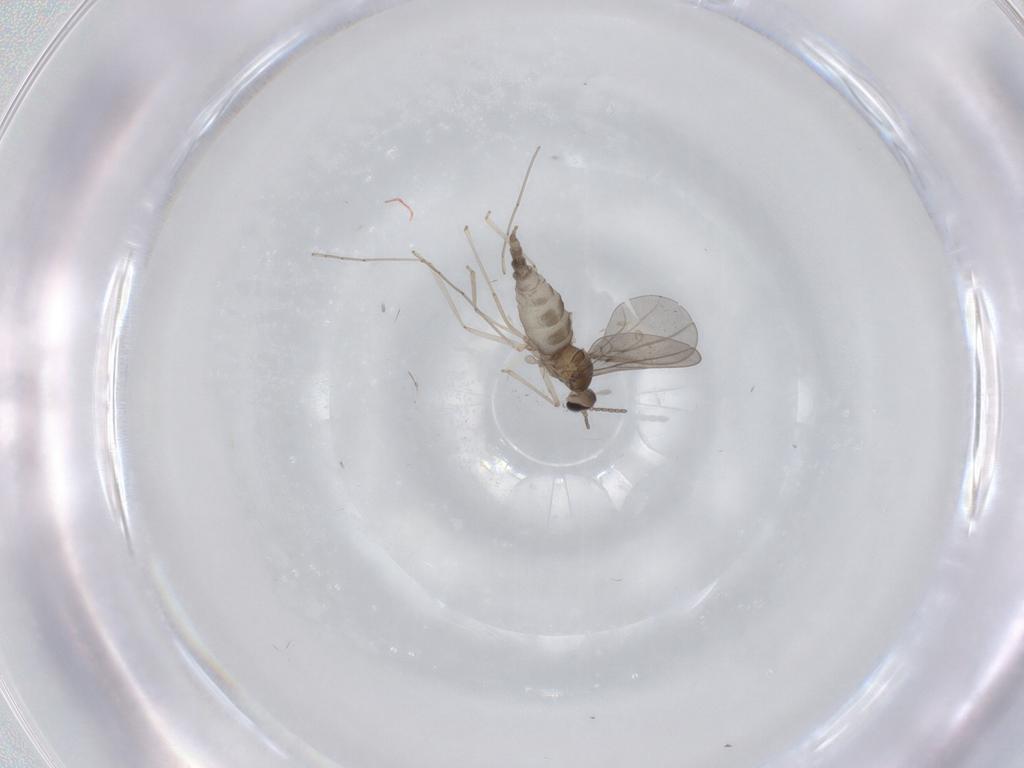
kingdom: Animalia
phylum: Arthropoda
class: Insecta
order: Diptera
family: Cecidomyiidae
